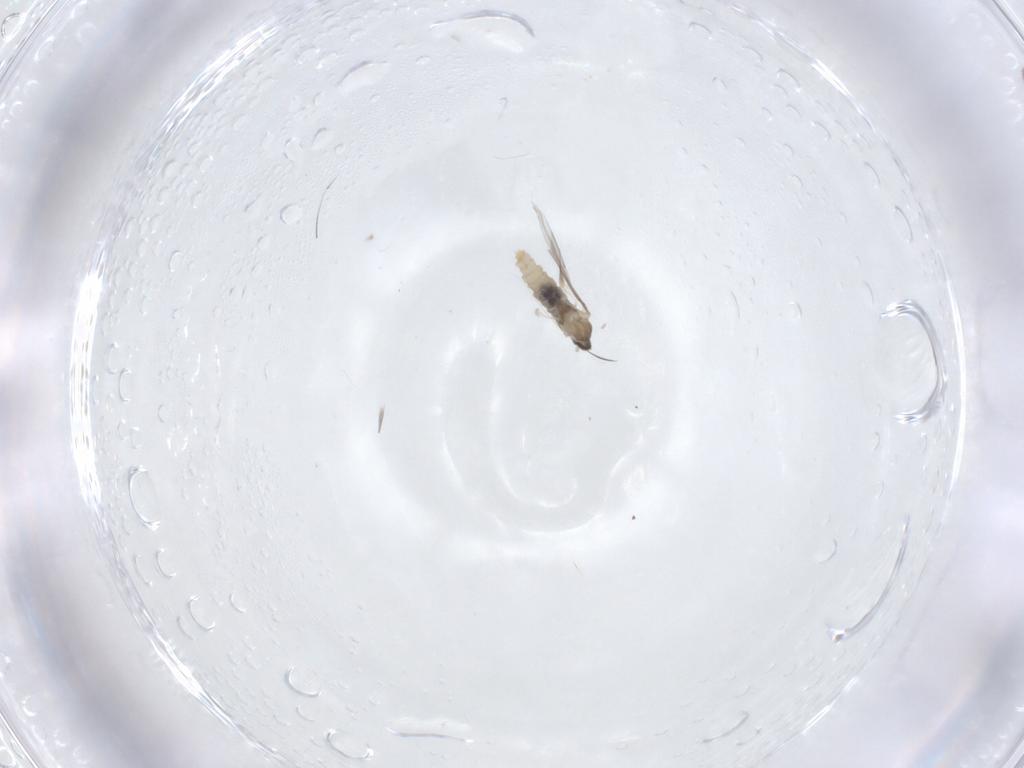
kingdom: Animalia
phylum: Arthropoda
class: Insecta
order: Diptera
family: Cecidomyiidae
